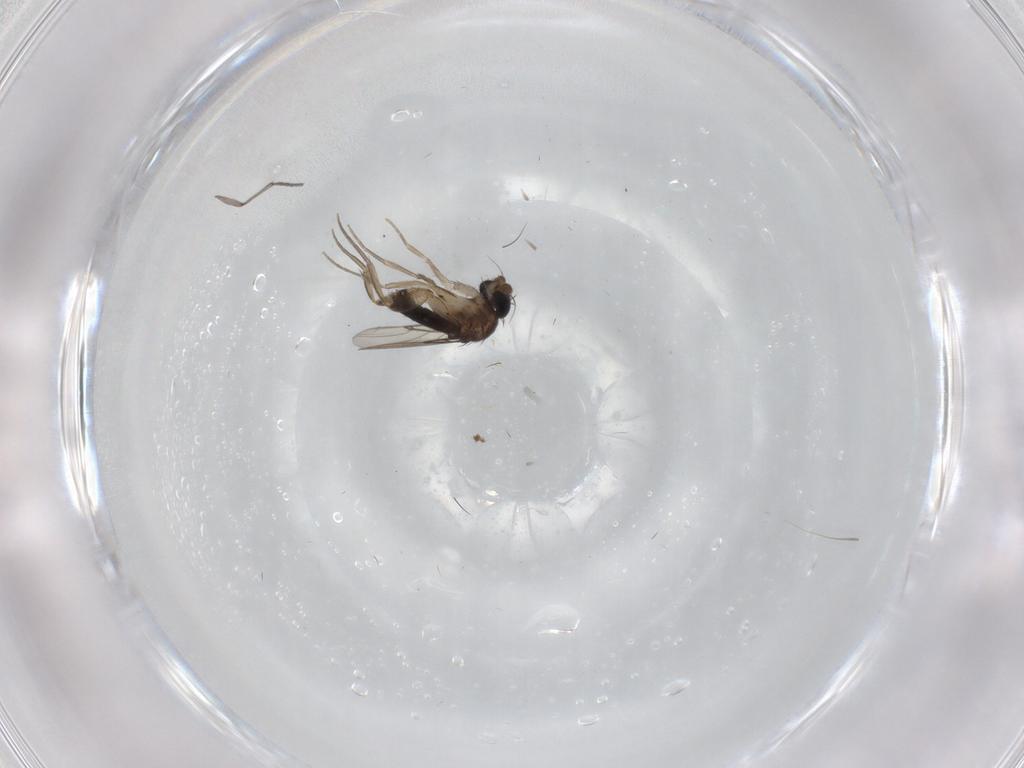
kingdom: Animalia
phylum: Arthropoda
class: Insecta
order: Diptera
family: Phoridae
